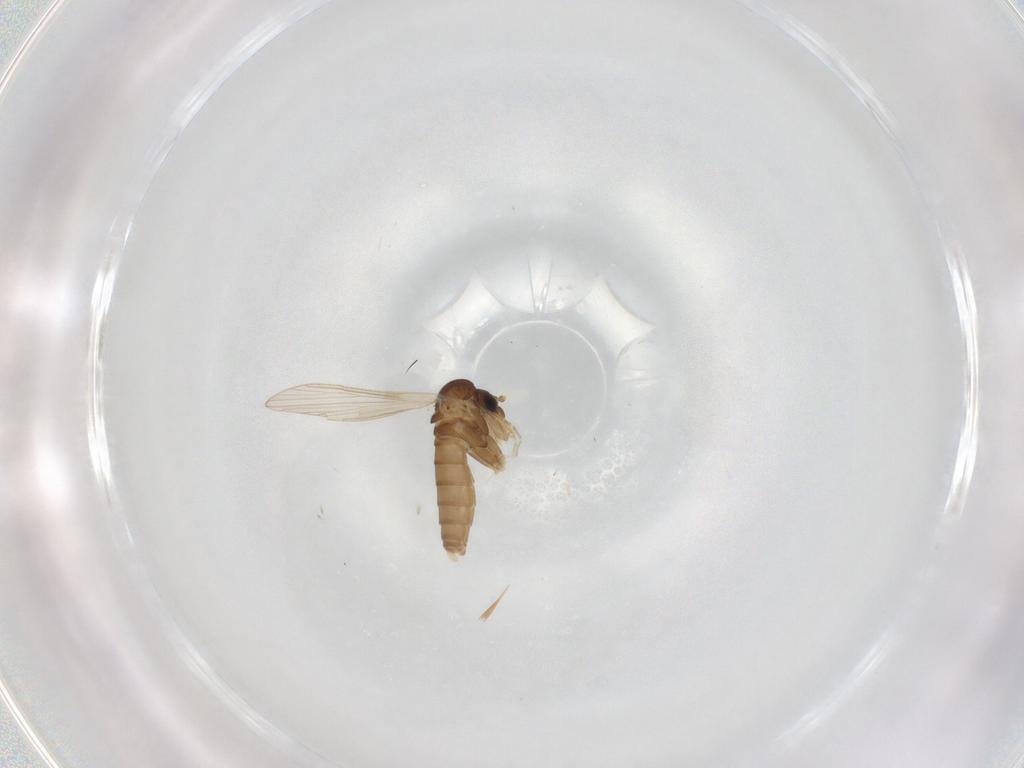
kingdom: Animalia
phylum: Arthropoda
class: Insecta
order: Diptera
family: Psychodidae
